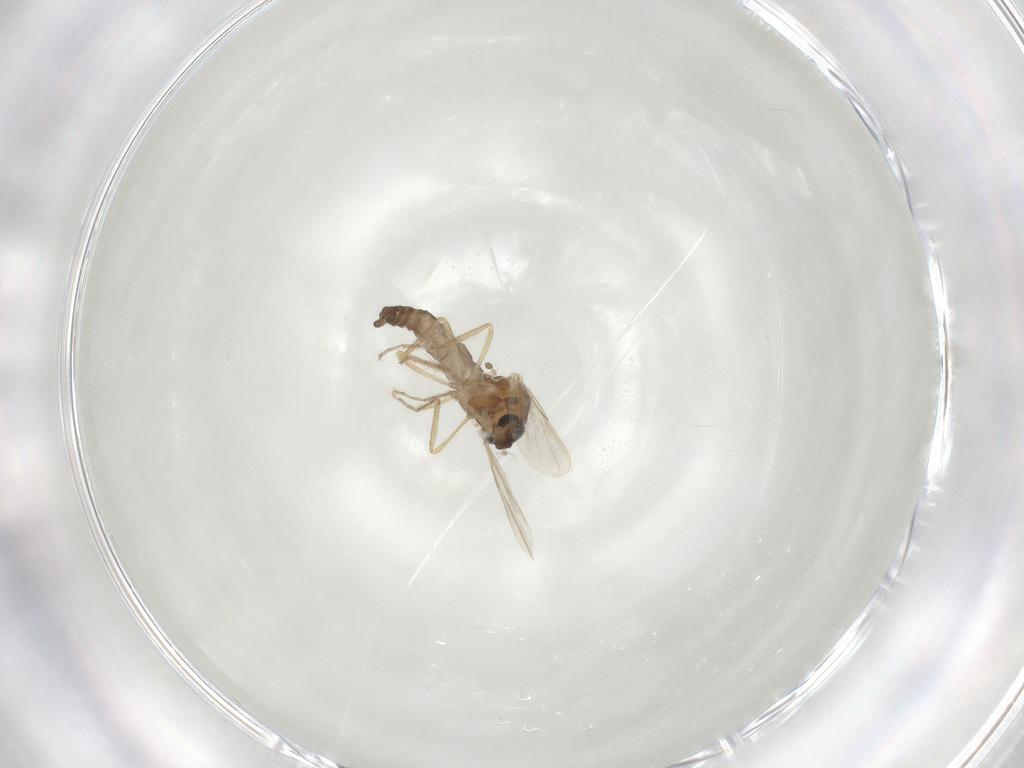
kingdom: Animalia
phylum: Arthropoda
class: Insecta
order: Diptera
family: Ceratopogonidae
